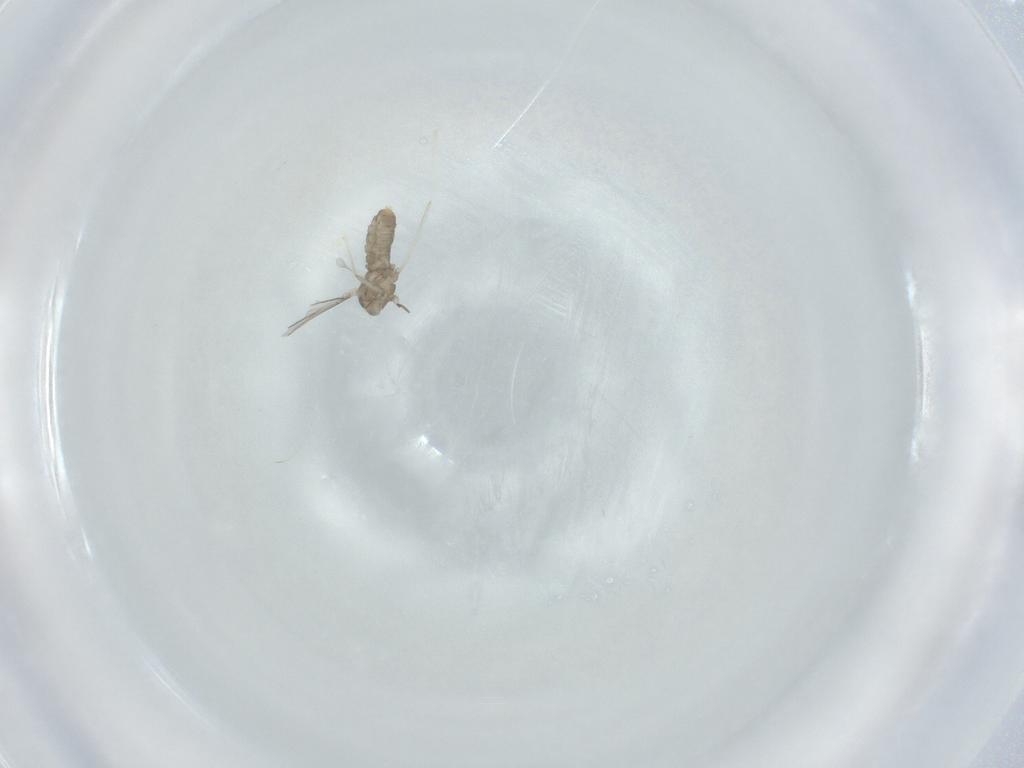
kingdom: Animalia
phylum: Arthropoda
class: Insecta
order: Diptera
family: Cecidomyiidae
